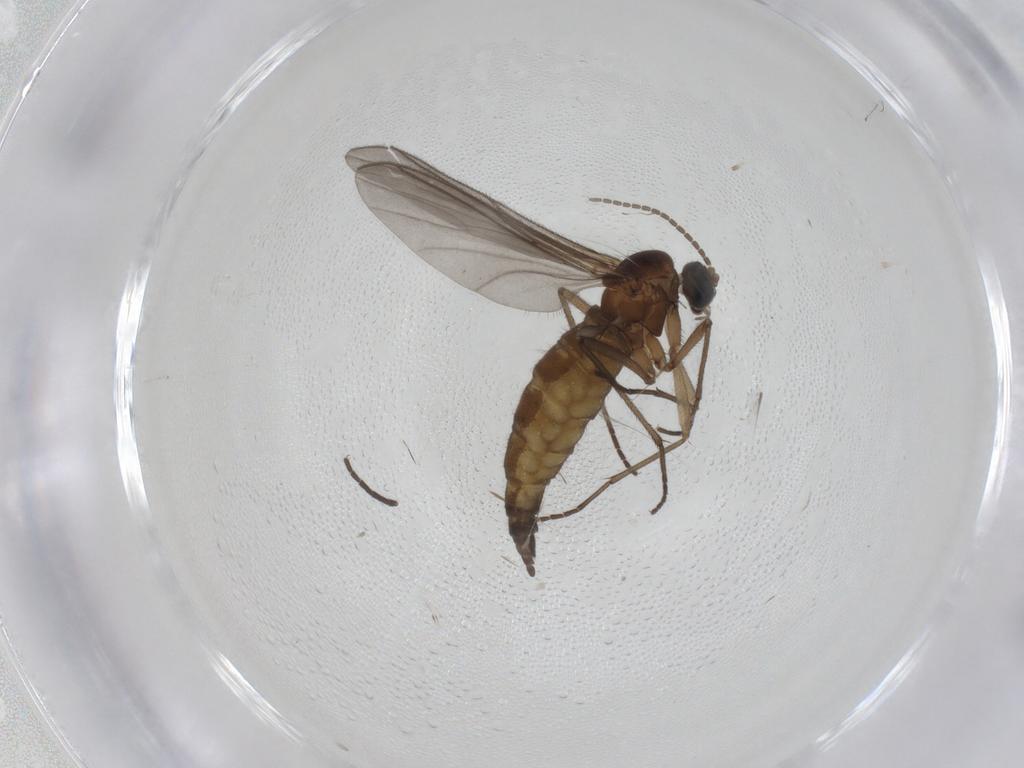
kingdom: Animalia
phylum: Arthropoda
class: Insecta
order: Diptera
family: Sciaridae
